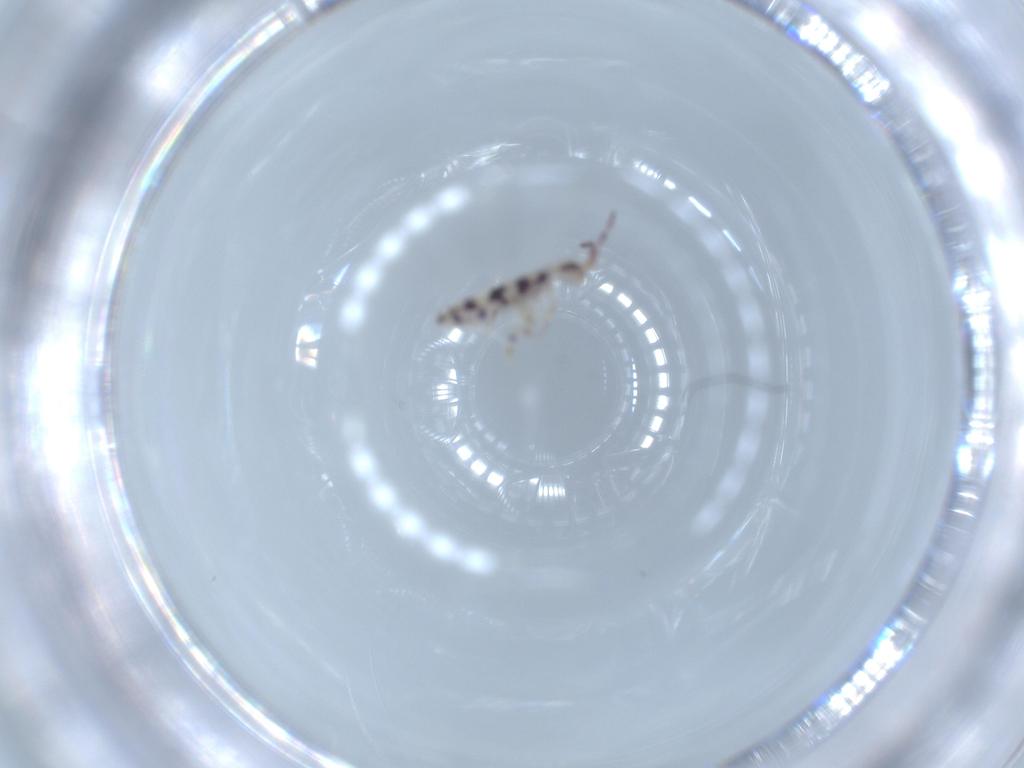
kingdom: Animalia
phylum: Arthropoda
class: Collembola
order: Entomobryomorpha
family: Entomobryidae
